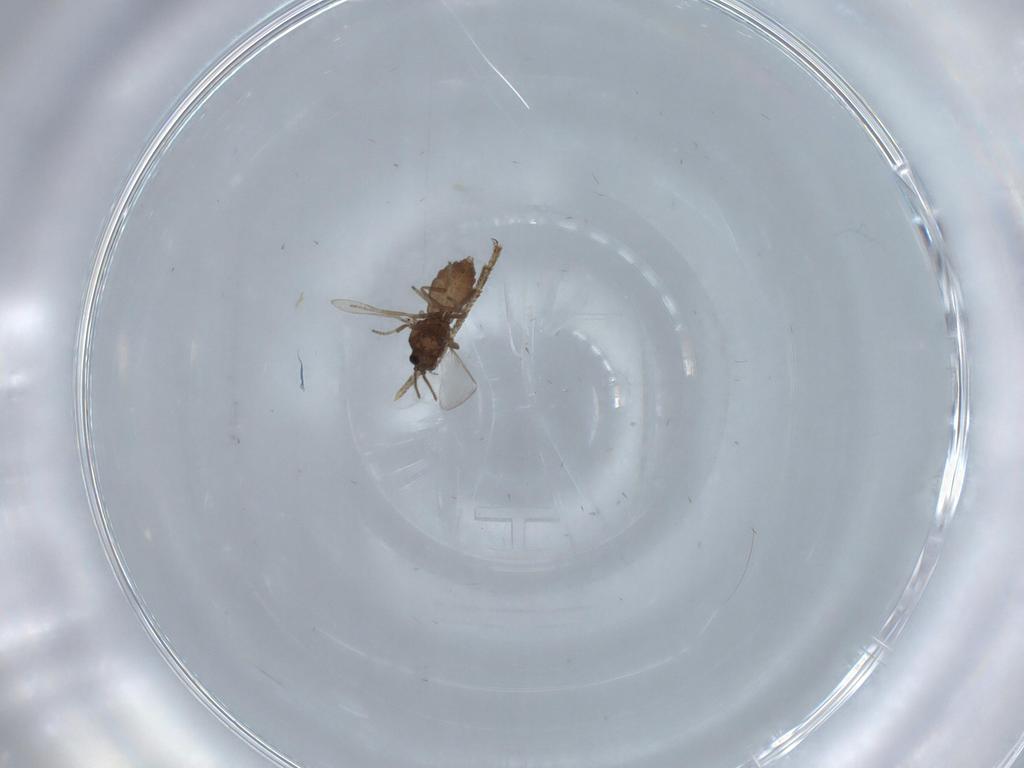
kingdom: Animalia
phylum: Arthropoda
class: Insecta
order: Diptera
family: Ceratopogonidae
